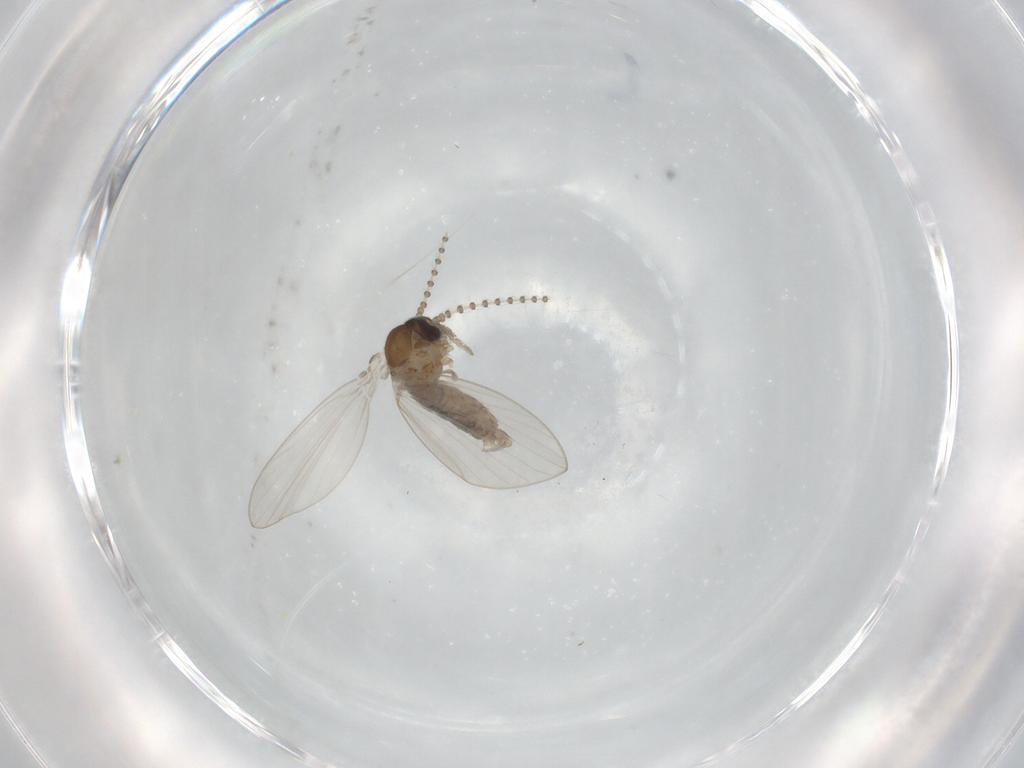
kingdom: Animalia
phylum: Arthropoda
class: Insecta
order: Diptera
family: Psychodidae
